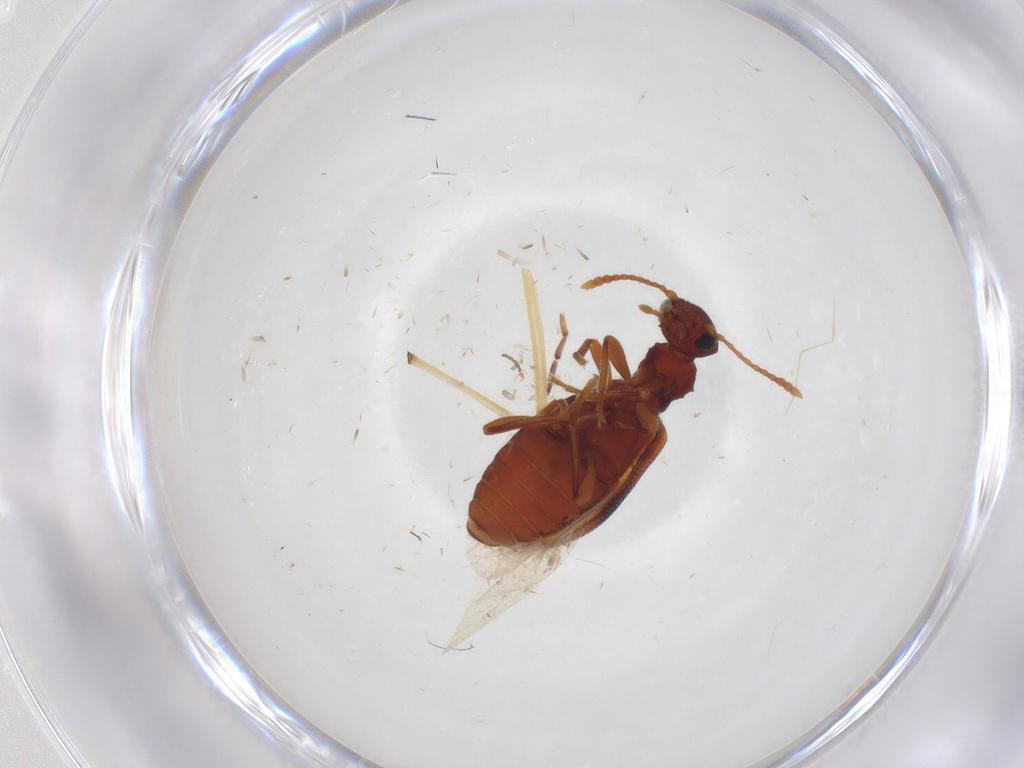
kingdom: Animalia
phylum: Arthropoda
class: Insecta
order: Coleoptera
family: Anthicidae
